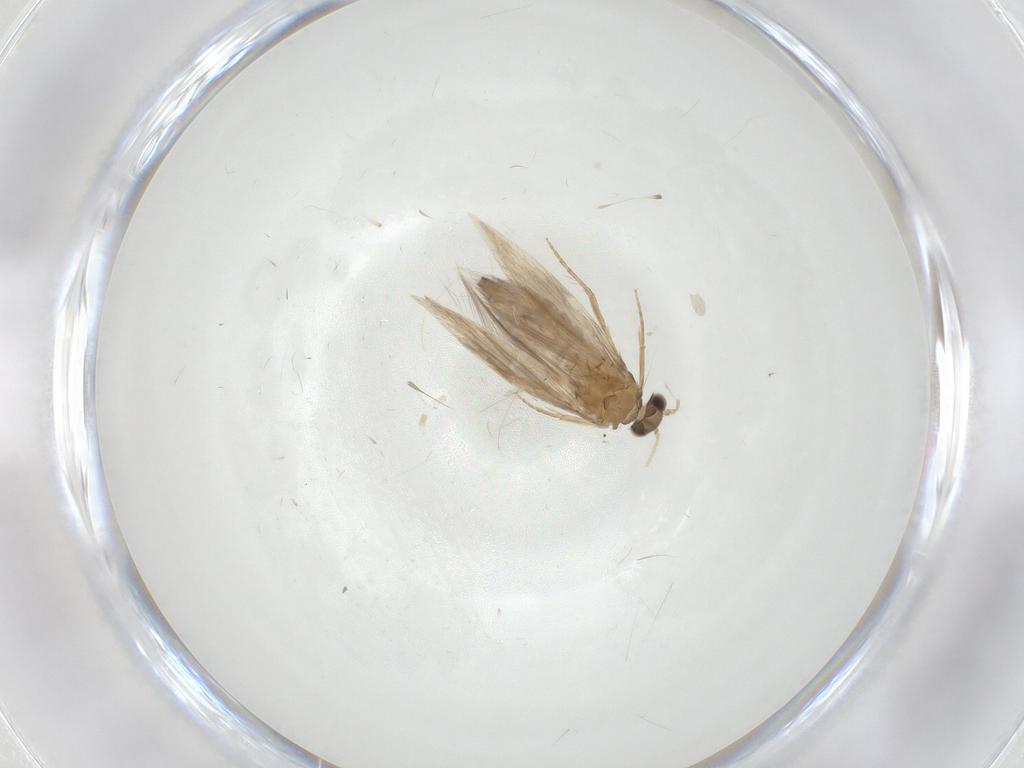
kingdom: Animalia
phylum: Arthropoda
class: Insecta
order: Trichoptera
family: Hydroptilidae
